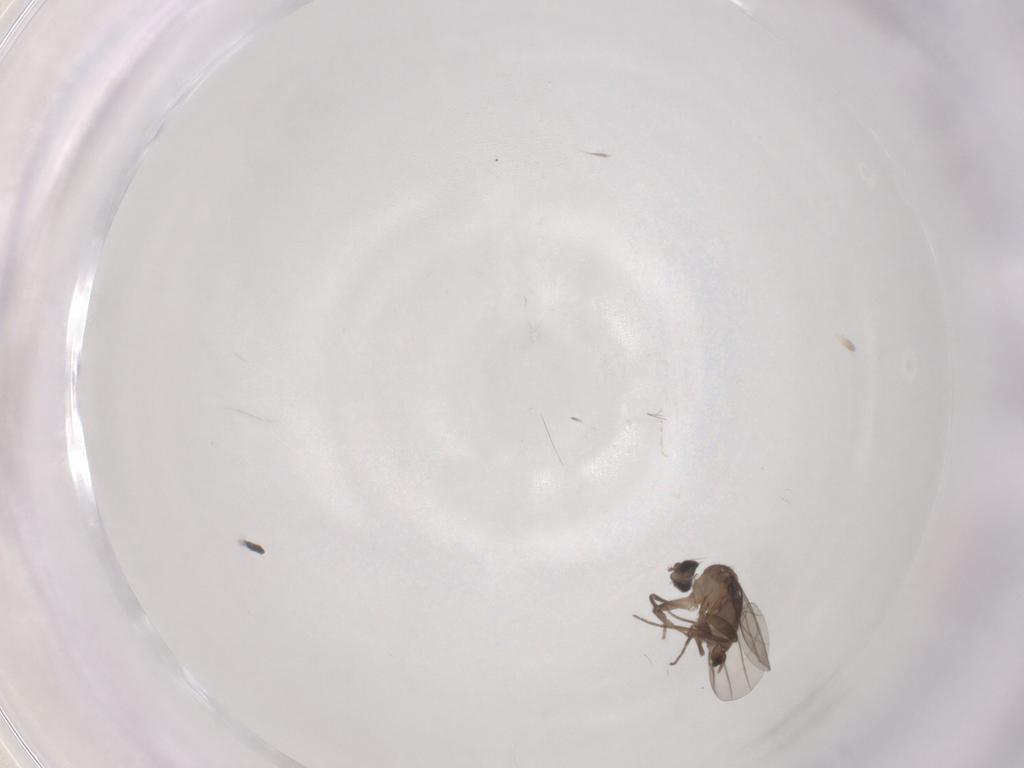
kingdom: Animalia
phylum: Arthropoda
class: Insecta
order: Diptera
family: Phoridae
